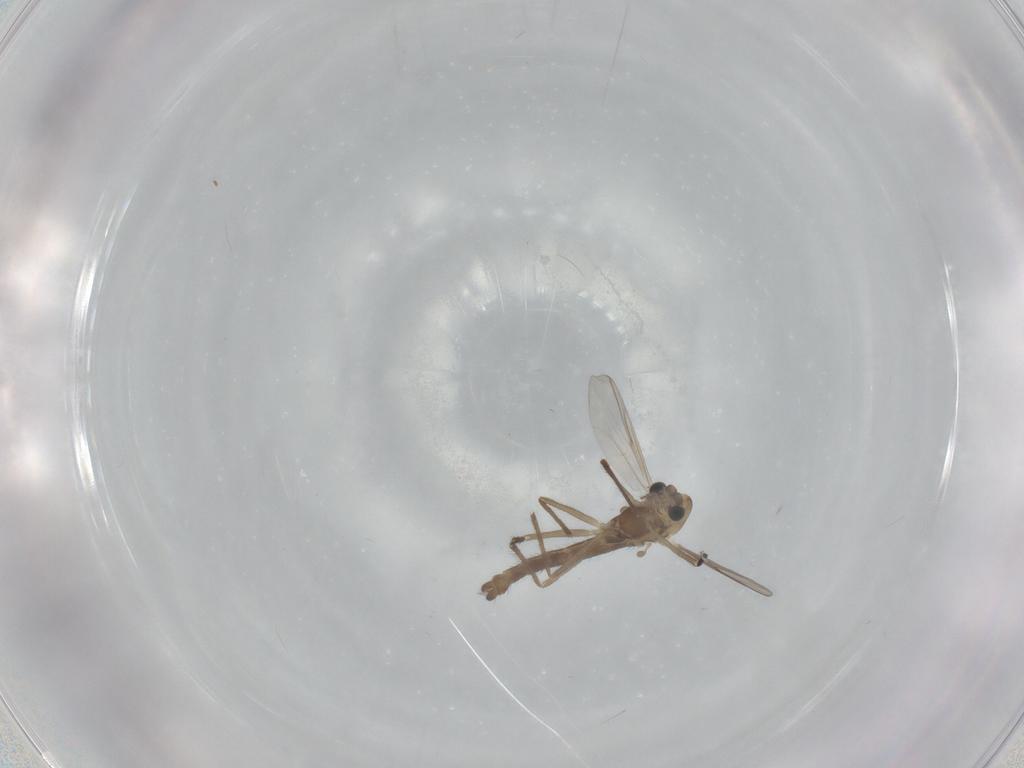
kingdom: Animalia
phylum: Arthropoda
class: Insecta
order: Diptera
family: Chironomidae
